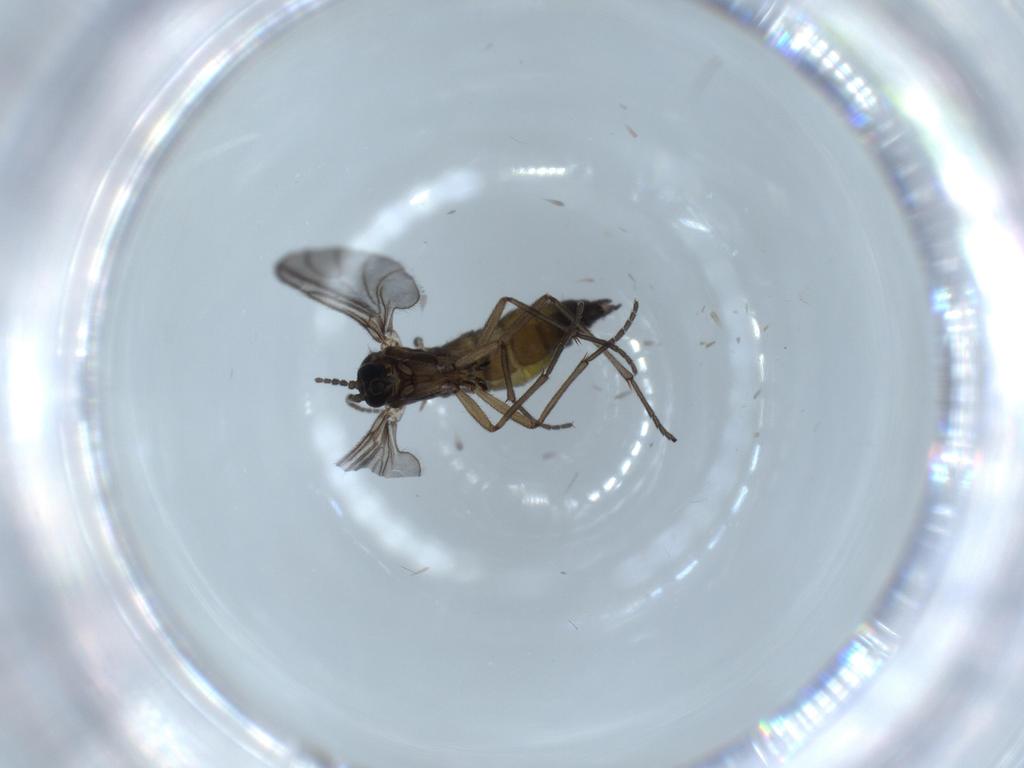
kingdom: Animalia
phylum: Arthropoda
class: Insecta
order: Diptera
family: Sciaridae
